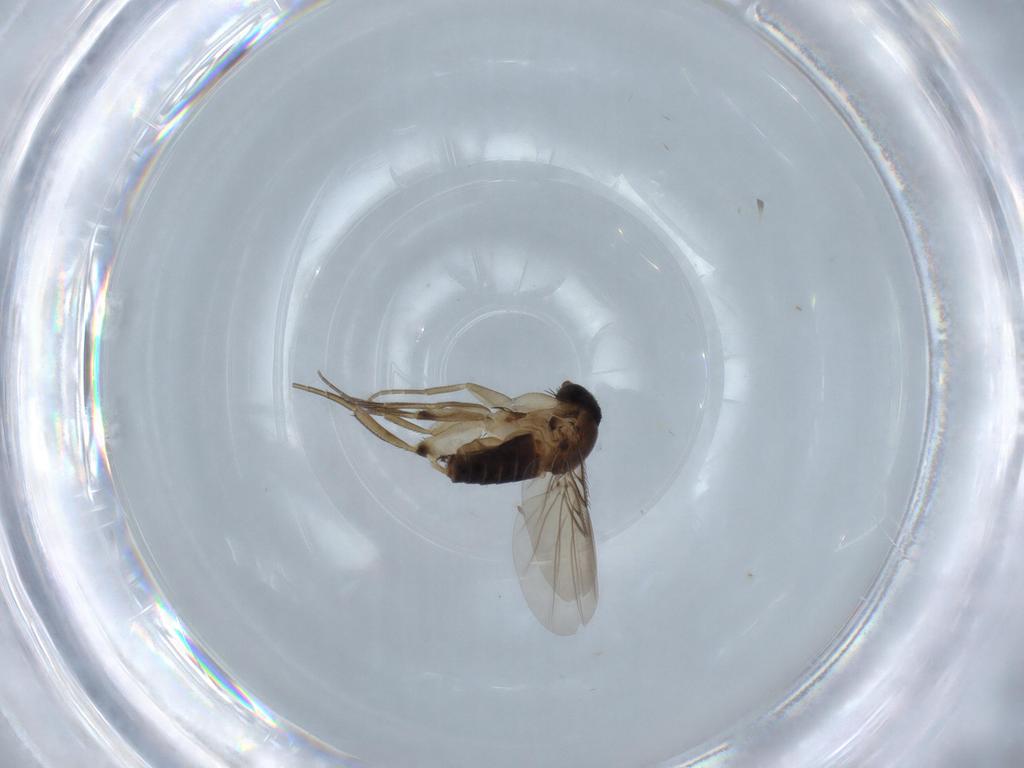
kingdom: Animalia
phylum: Arthropoda
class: Insecta
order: Diptera
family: Phoridae
